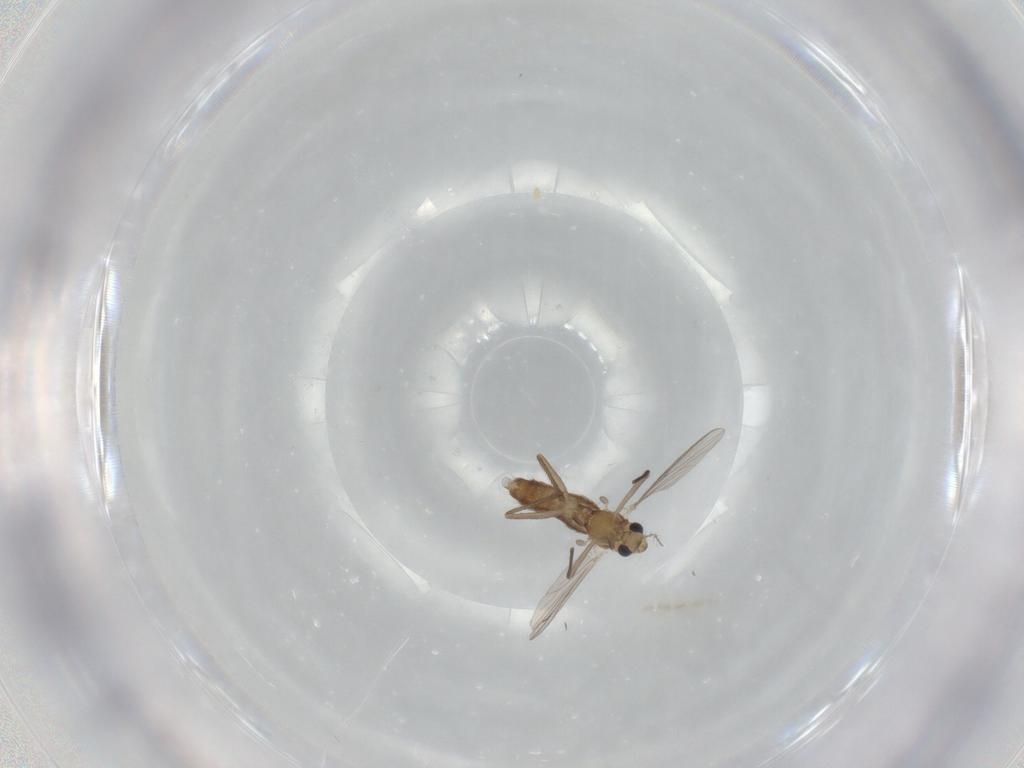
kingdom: Animalia
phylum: Arthropoda
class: Insecta
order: Diptera
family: Chironomidae
